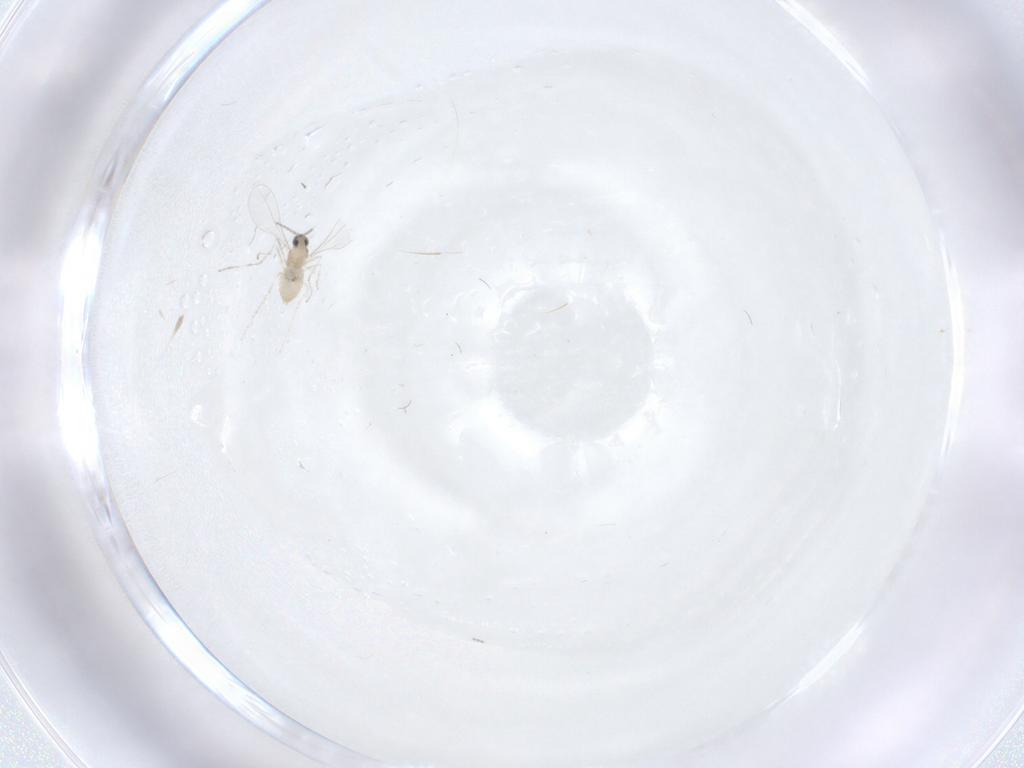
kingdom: Animalia
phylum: Arthropoda
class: Insecta
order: Diptera
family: Cecidomyiidae
